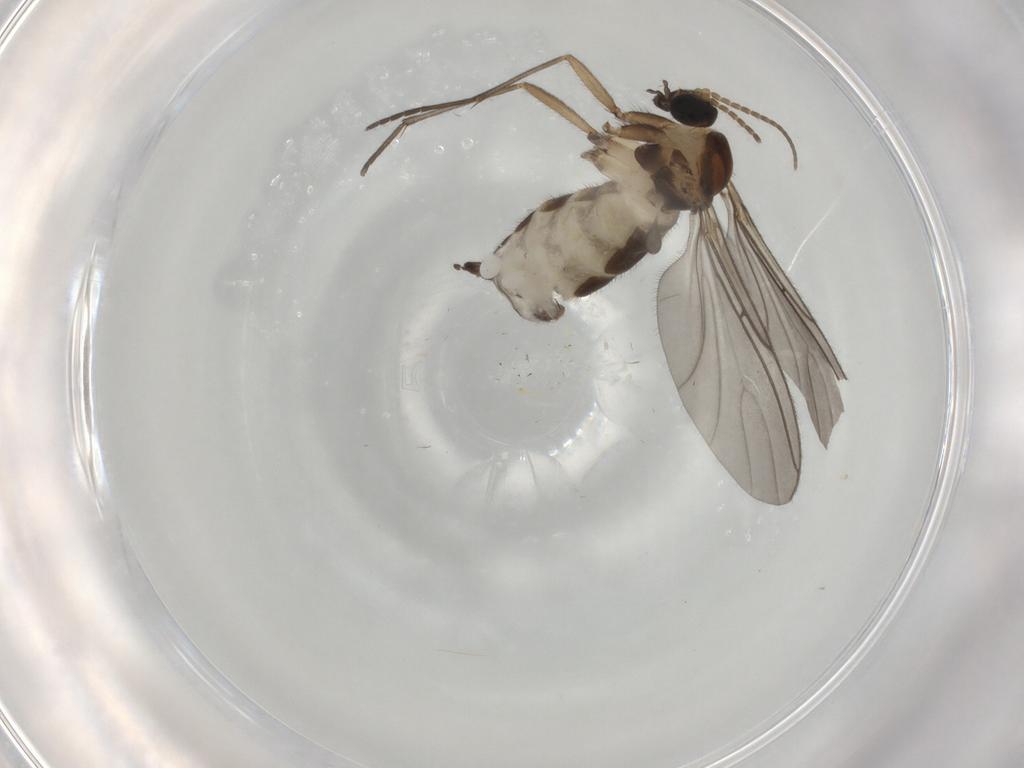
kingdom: Animalia
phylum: Arthropoda
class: Insecta
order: Diptera
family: Sciaridae
